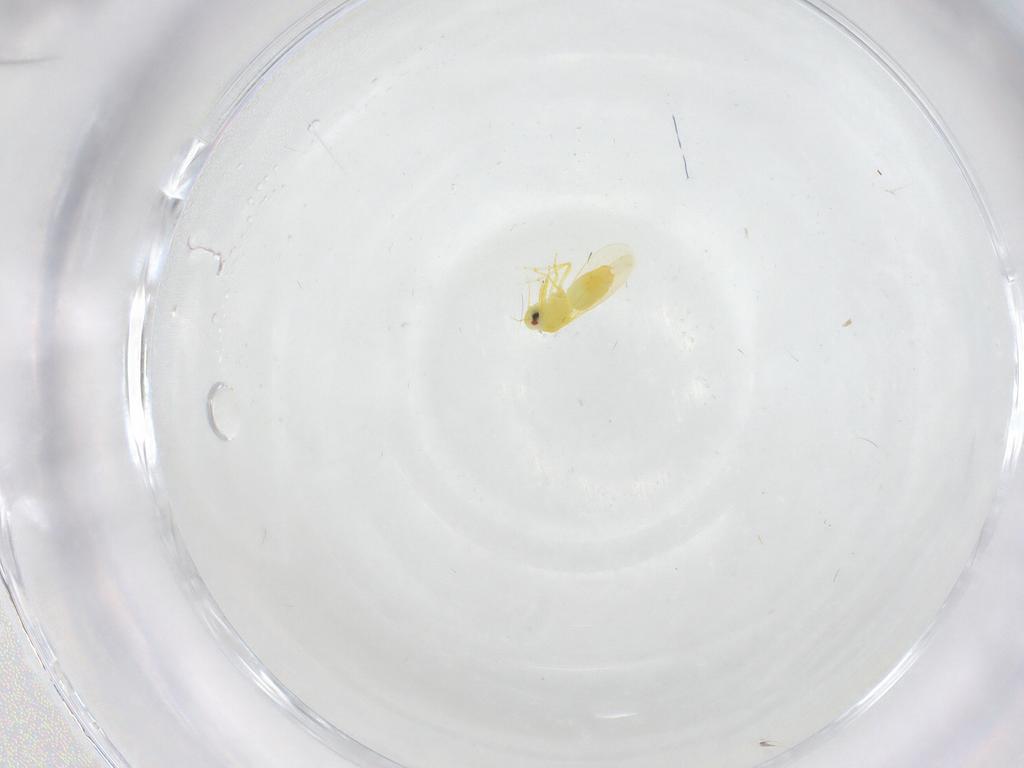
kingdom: Animalia
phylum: Arthropoda
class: Insecta
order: Hemiptera
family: Aleyrodidae
